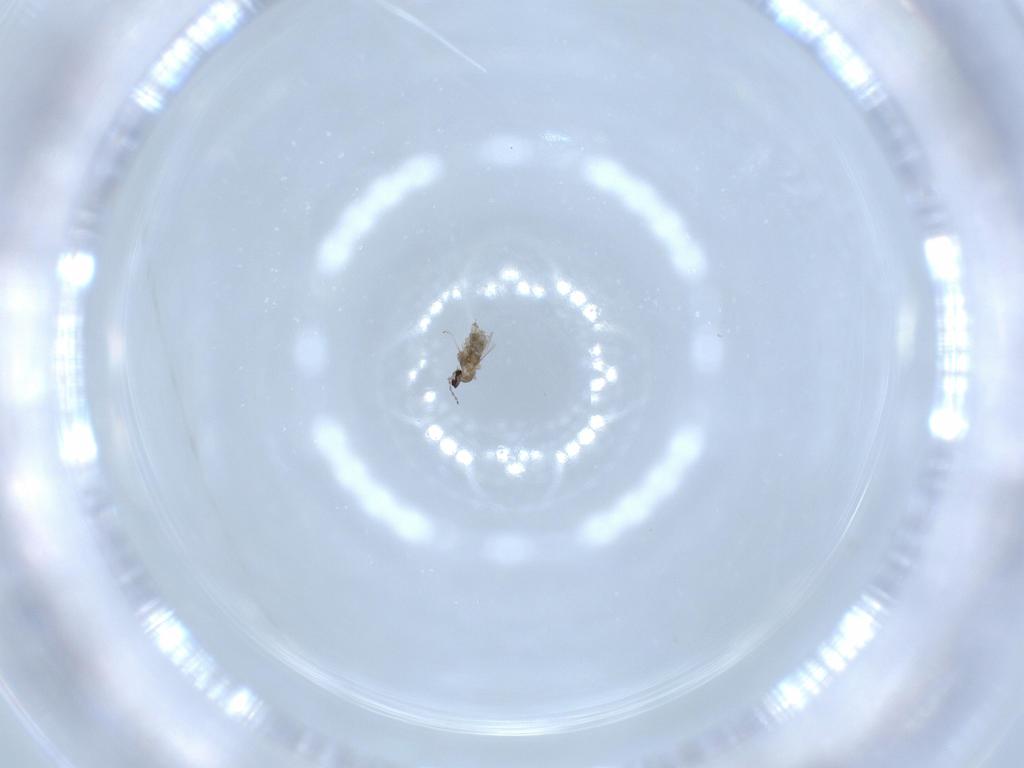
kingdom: Animalia
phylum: Arthropoda
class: Insecta
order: Diptera
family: Cecidomyiidae
